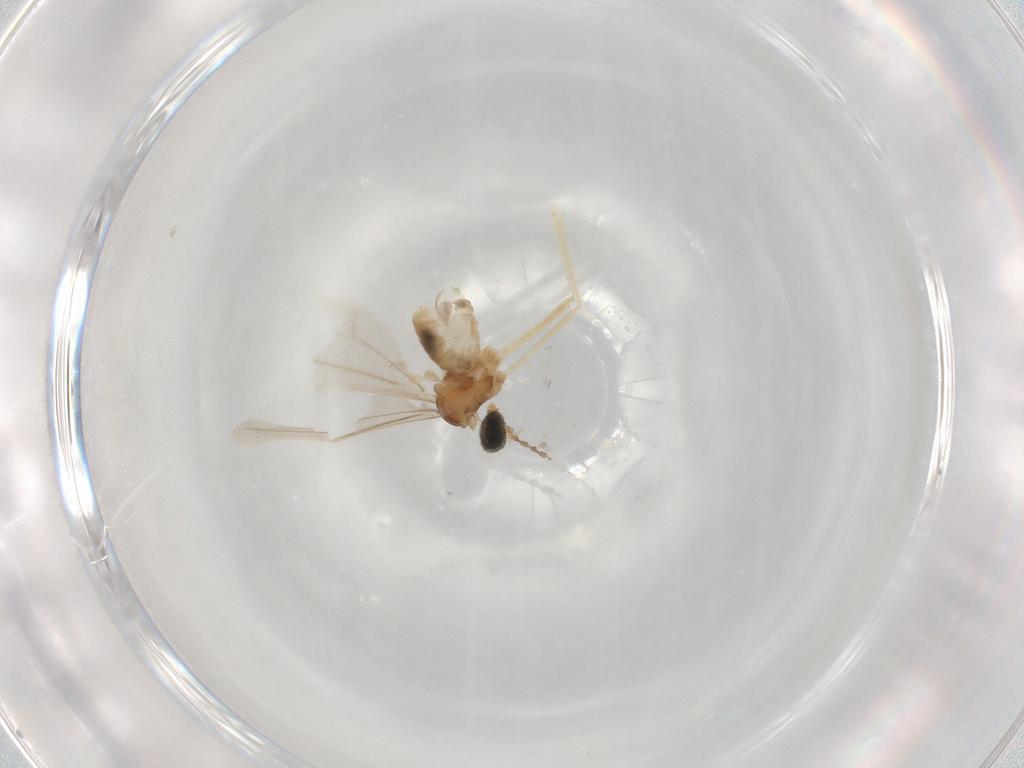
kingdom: Animalia
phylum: Arthropoda
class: Insecta
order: Diptera
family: Cecidomyiidae
